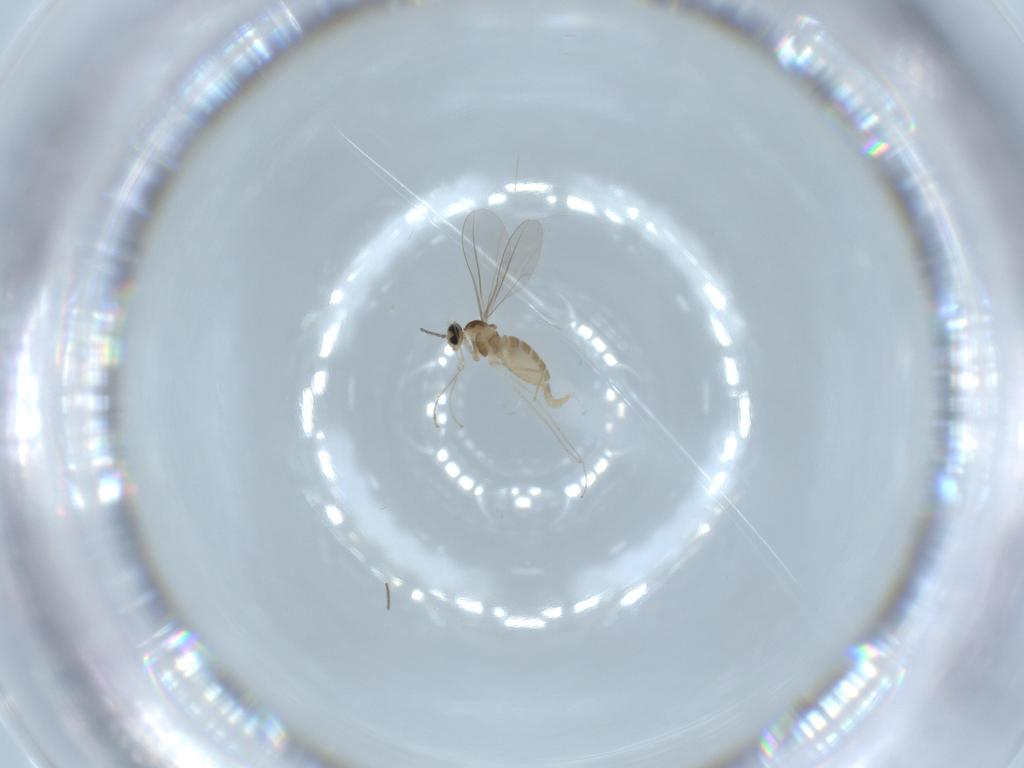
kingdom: Animalia
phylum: Arthropoda
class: Insecta
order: Diptera
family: Cecidomyiidae
